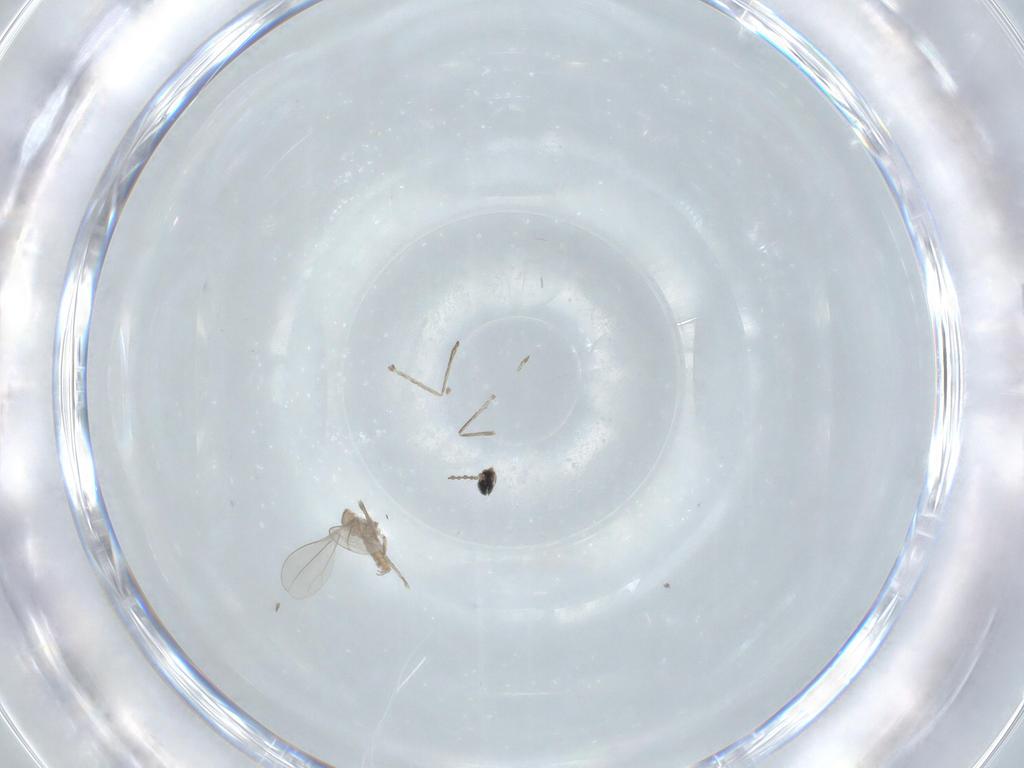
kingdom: Animalia
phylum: Arthropoda
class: Insecta
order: Diptera
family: Cecidomyiidae
